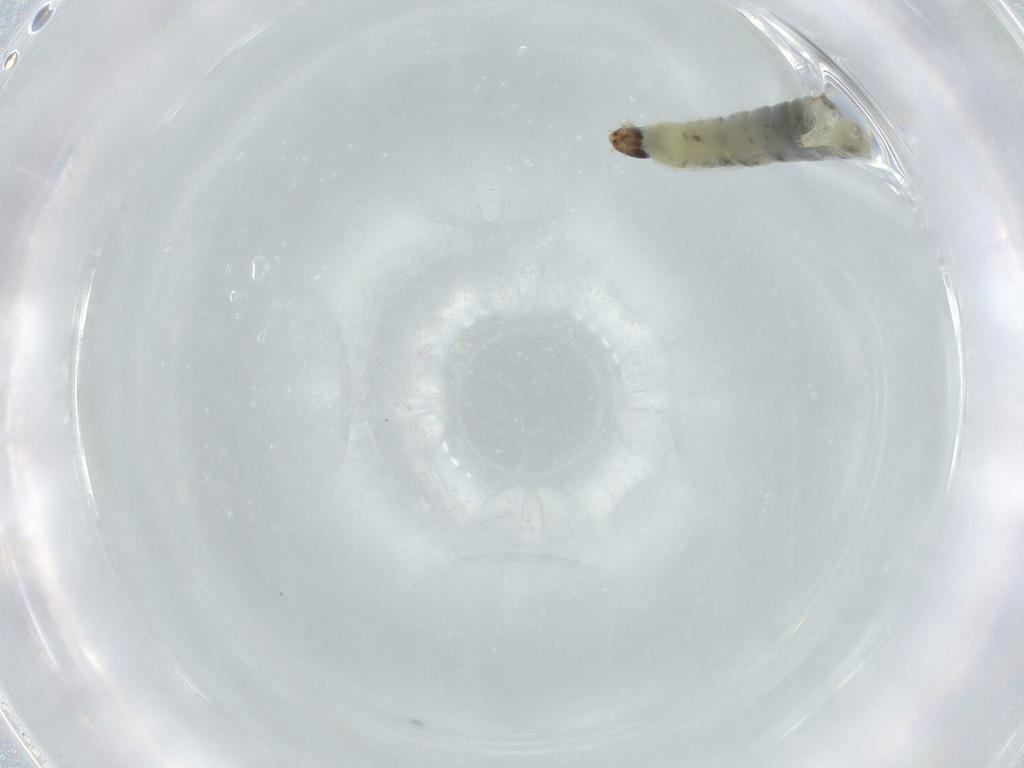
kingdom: Animalia
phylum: Arthropoda
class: Insecta
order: Diptera
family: Chironomidae
